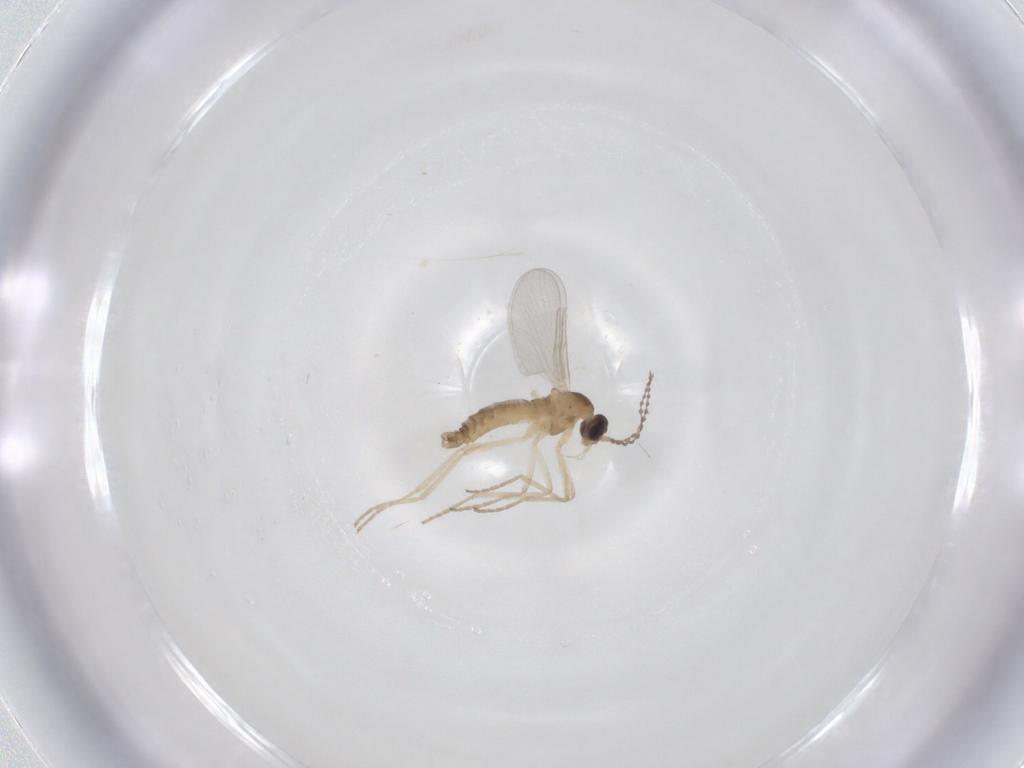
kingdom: Animalia
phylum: Arthropoda
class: Insecta
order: Diptera
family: Cecidomyiidae
